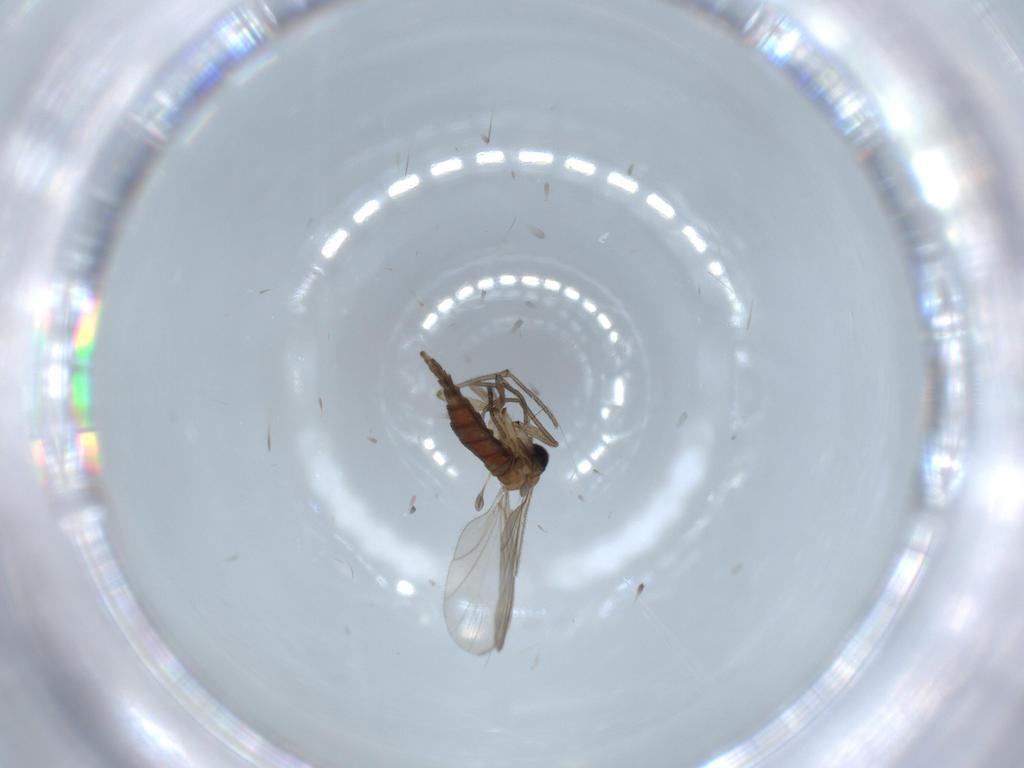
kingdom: Animalia
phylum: Arthropoda
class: Insecta
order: Diptera
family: Sciaridae
